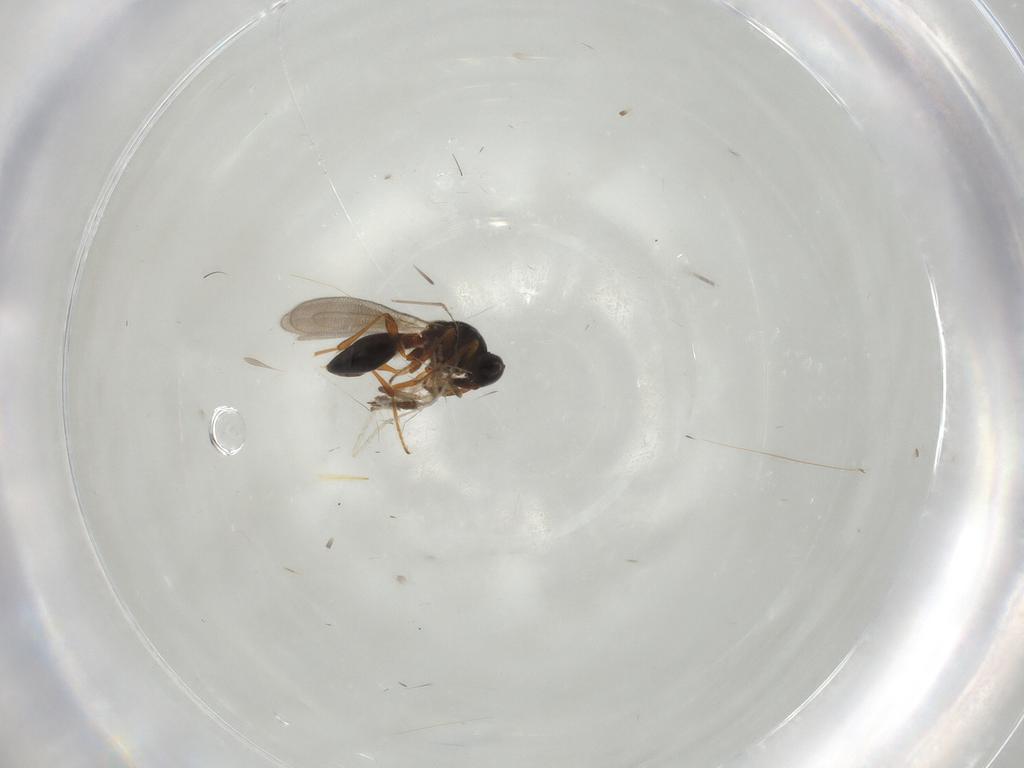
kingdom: Animalia
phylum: Arthropoda
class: Insecta
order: Hymenoptera
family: Platygastridae
